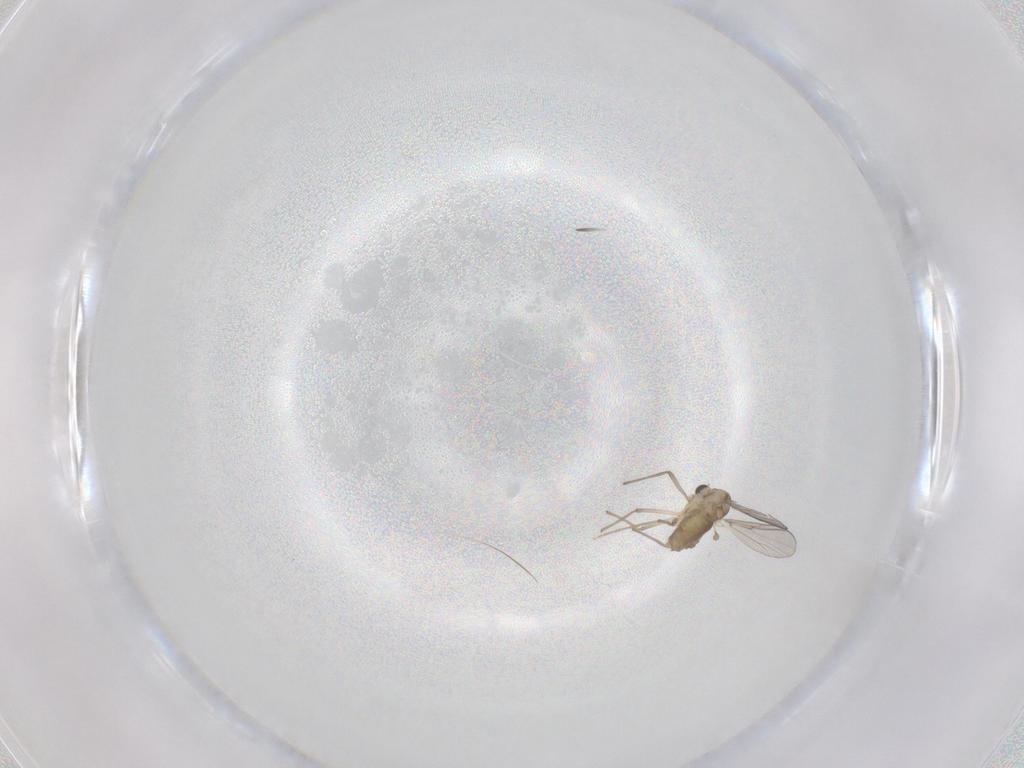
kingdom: Animalia
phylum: Arthropoda
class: Insecta
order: Diptera
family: Chironomidae
